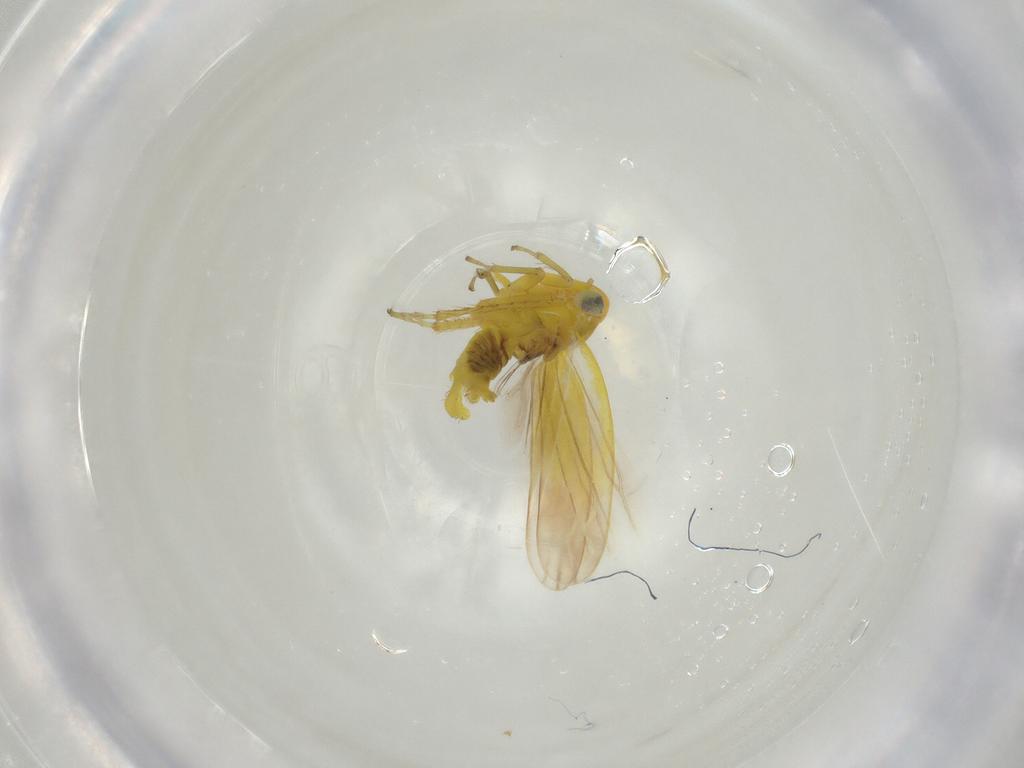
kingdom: Animalia
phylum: Arthropoda
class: Insecta
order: Hemiptera
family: Cicadellidae
